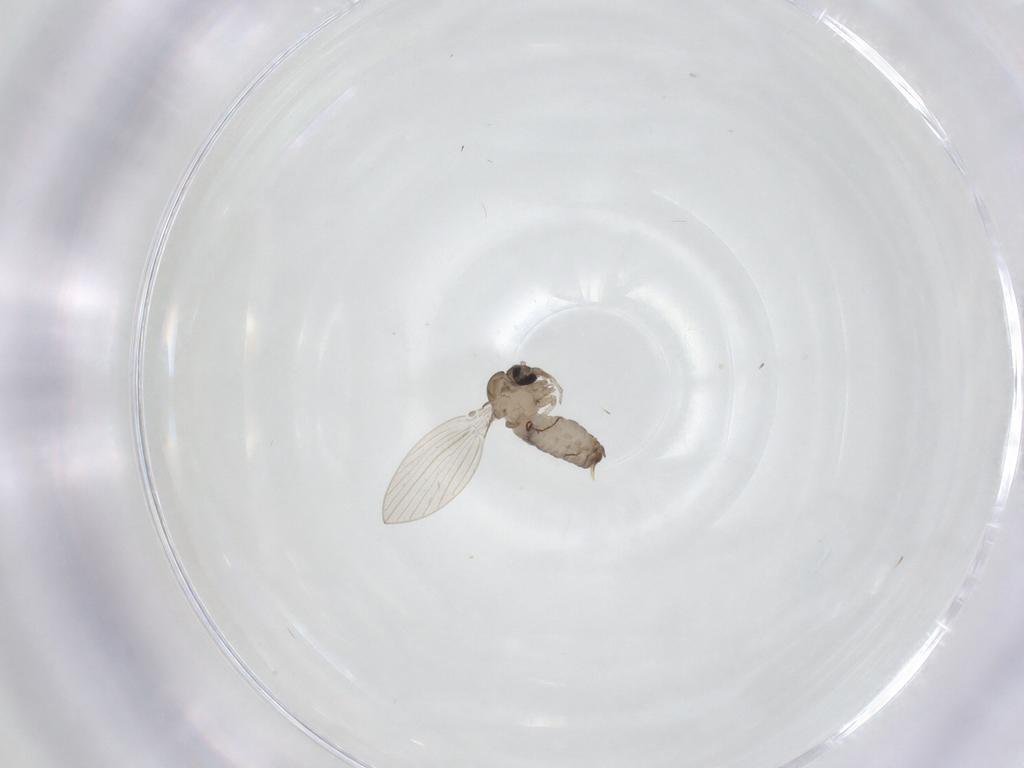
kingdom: Animalia
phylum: Arthropoda
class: Insecta
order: Diptera
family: Psychodidae
